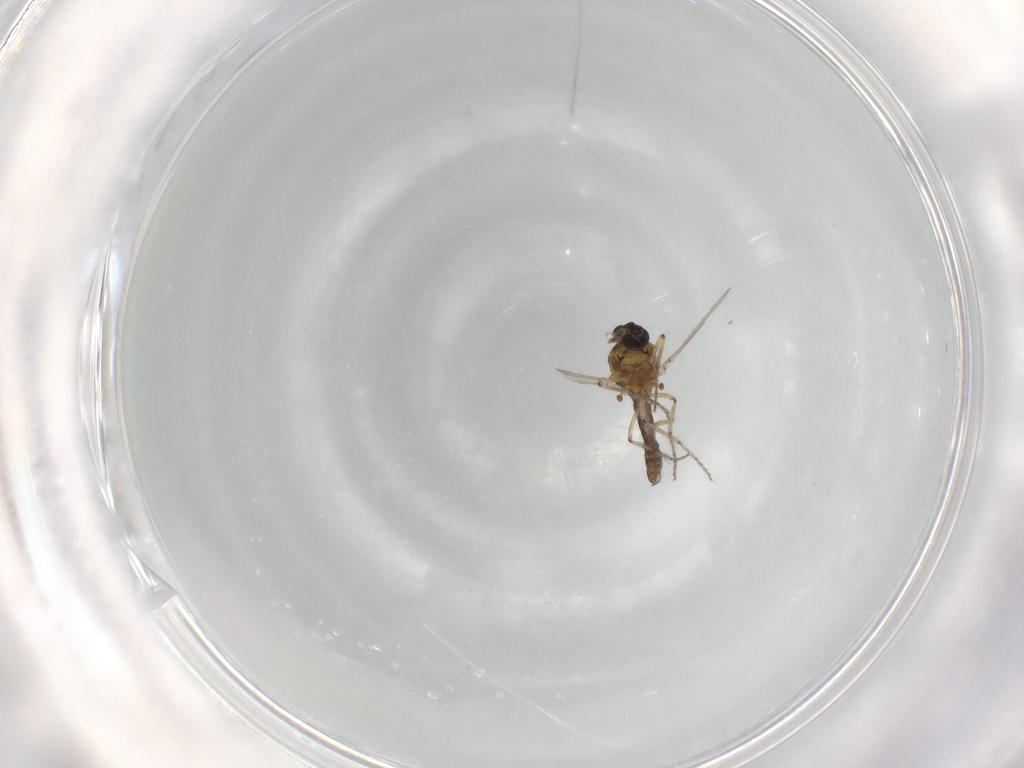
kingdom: Animalia
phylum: Arthropoda
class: Insecta
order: Diptera
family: Ceratopogonidae
